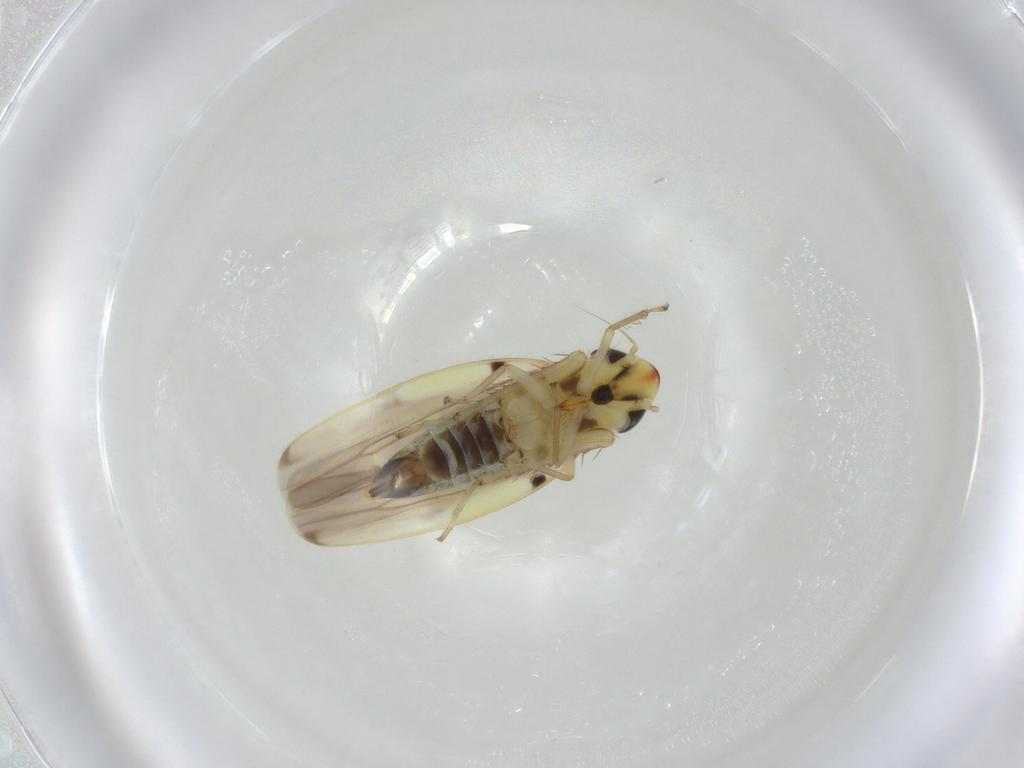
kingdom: Animalia
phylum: Arthropoda
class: Insecta
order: Hemiptera
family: Cicadellidae
